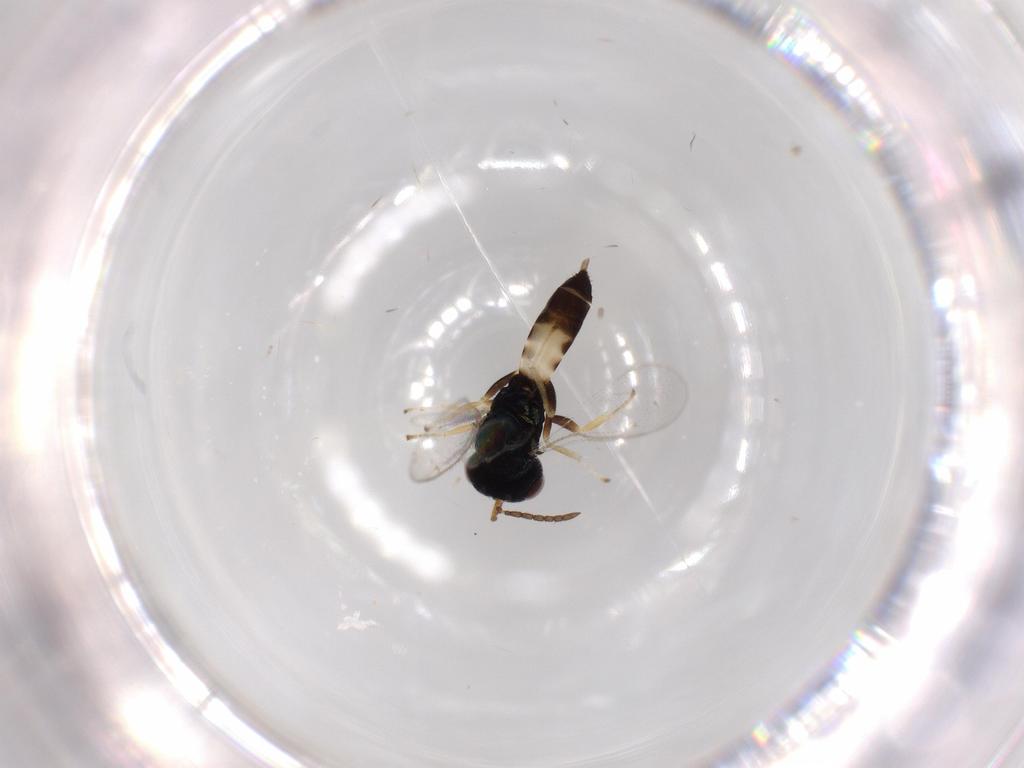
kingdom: Animalia
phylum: Arthropoda
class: Insecta
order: Hymenoptera
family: Pteromalidae
